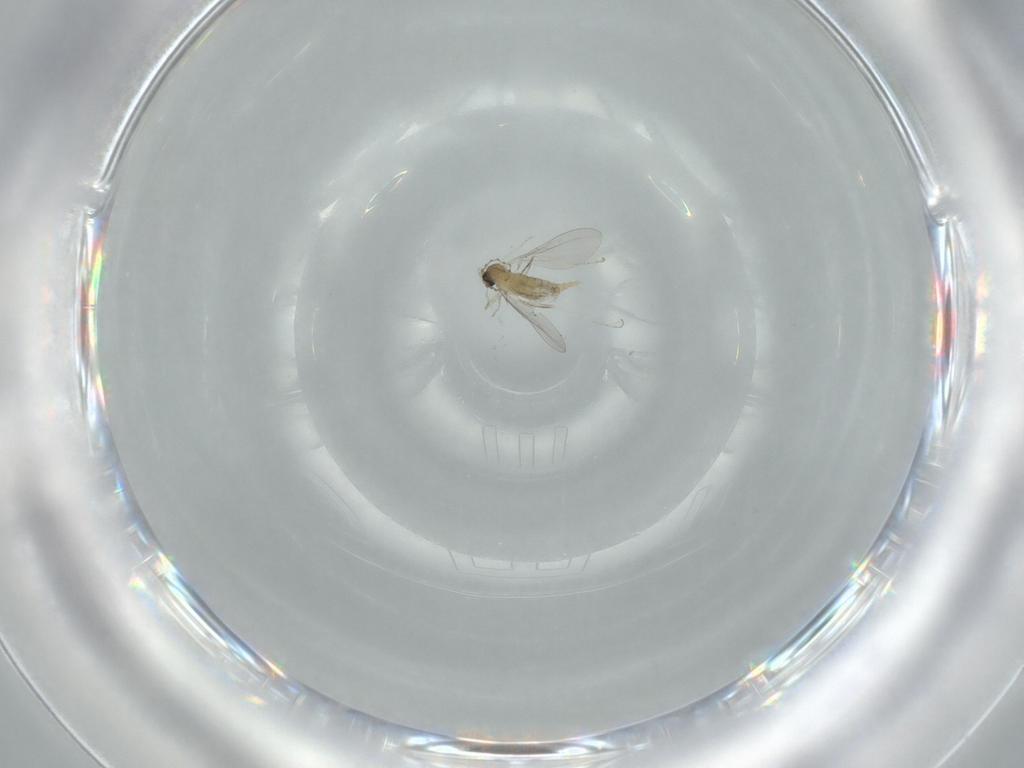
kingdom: Animalia
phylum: Arthropoda
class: Insecta
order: Diptera
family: Cecidomyiidae
